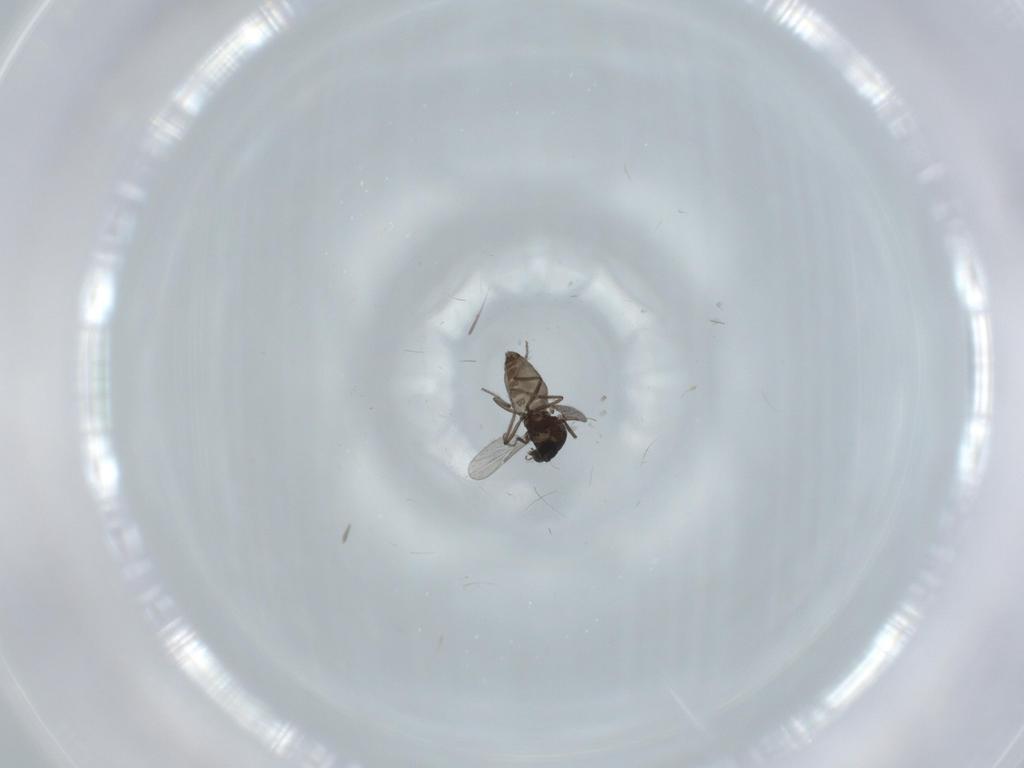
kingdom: Animalia
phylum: Arthropoda
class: Insecta
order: Diptera
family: Ceratopogonidae
